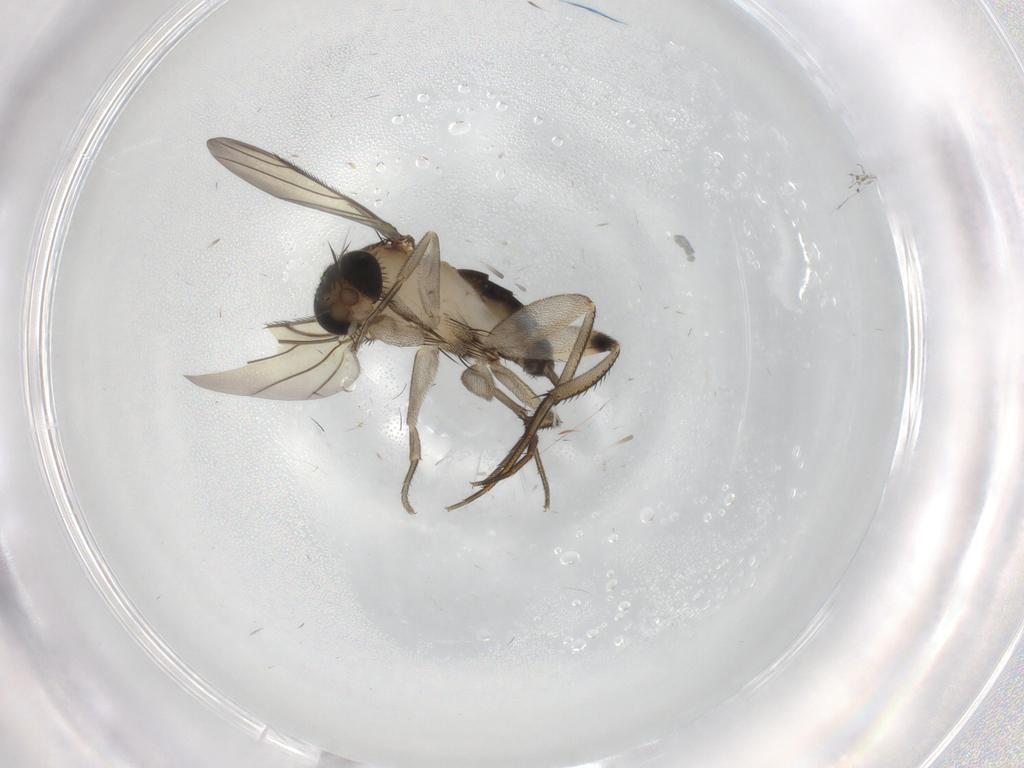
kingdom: Animalia
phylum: Arthropoda
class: Insecta
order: Diptera
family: Phoridae
